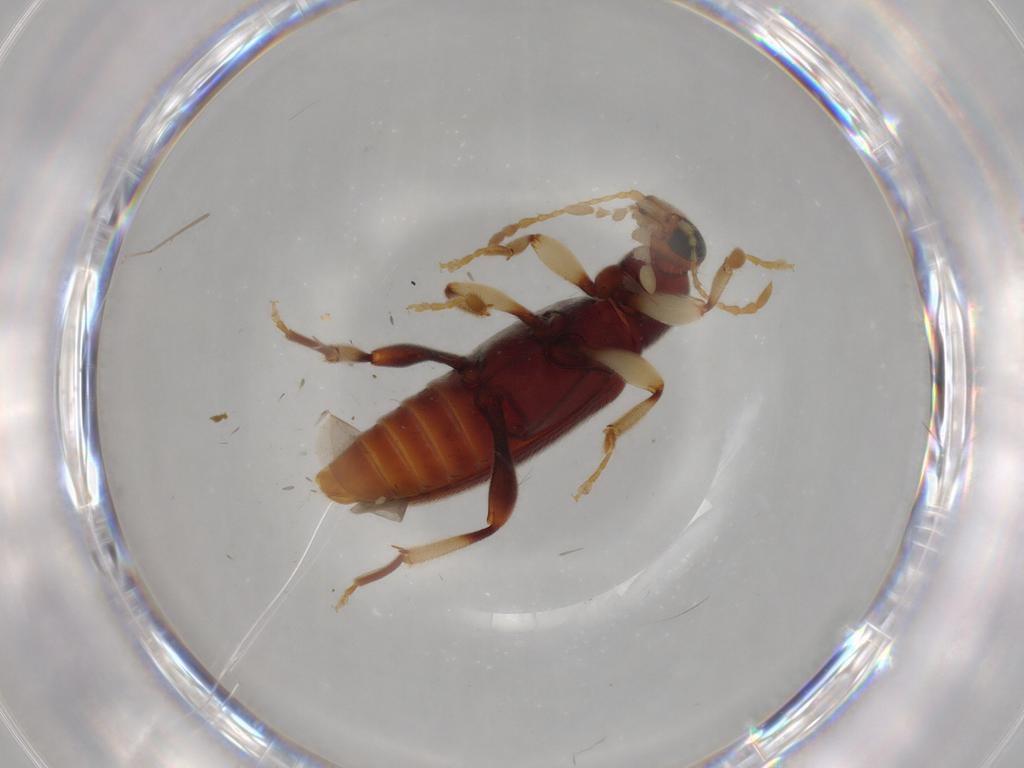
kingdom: Animalia
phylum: Arthropoda
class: Insecta
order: Coleoptera
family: Anthicidae
